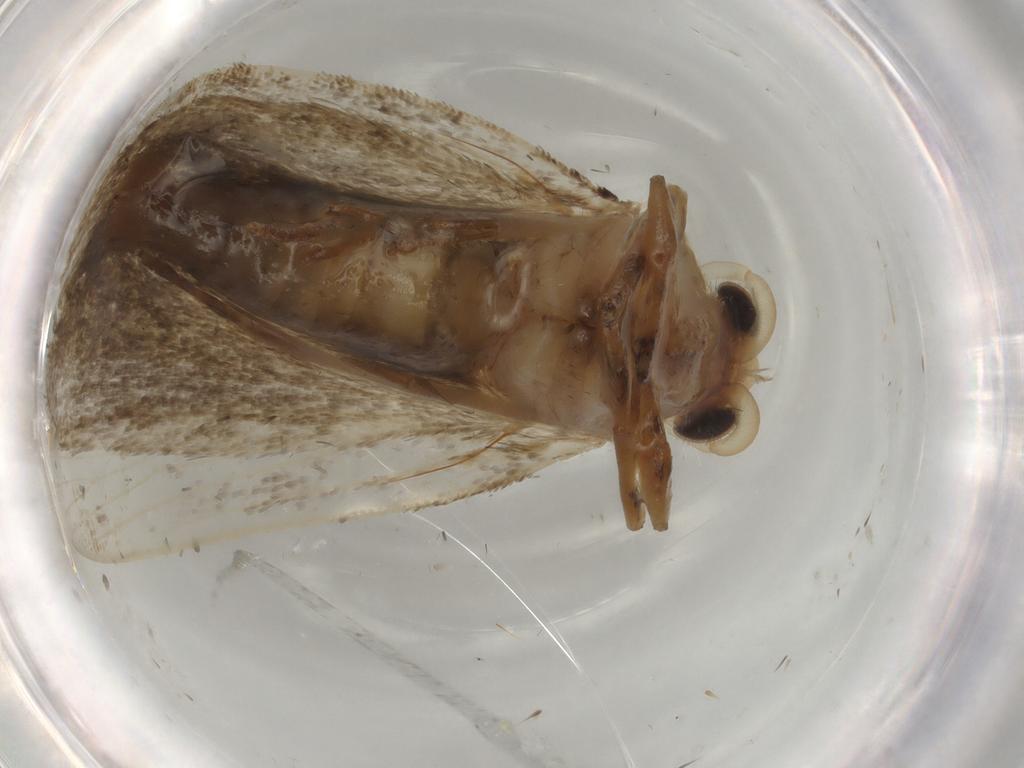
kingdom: Animalia
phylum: Arthropoda
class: Insecta
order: Lepidoptera
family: Tineidae
